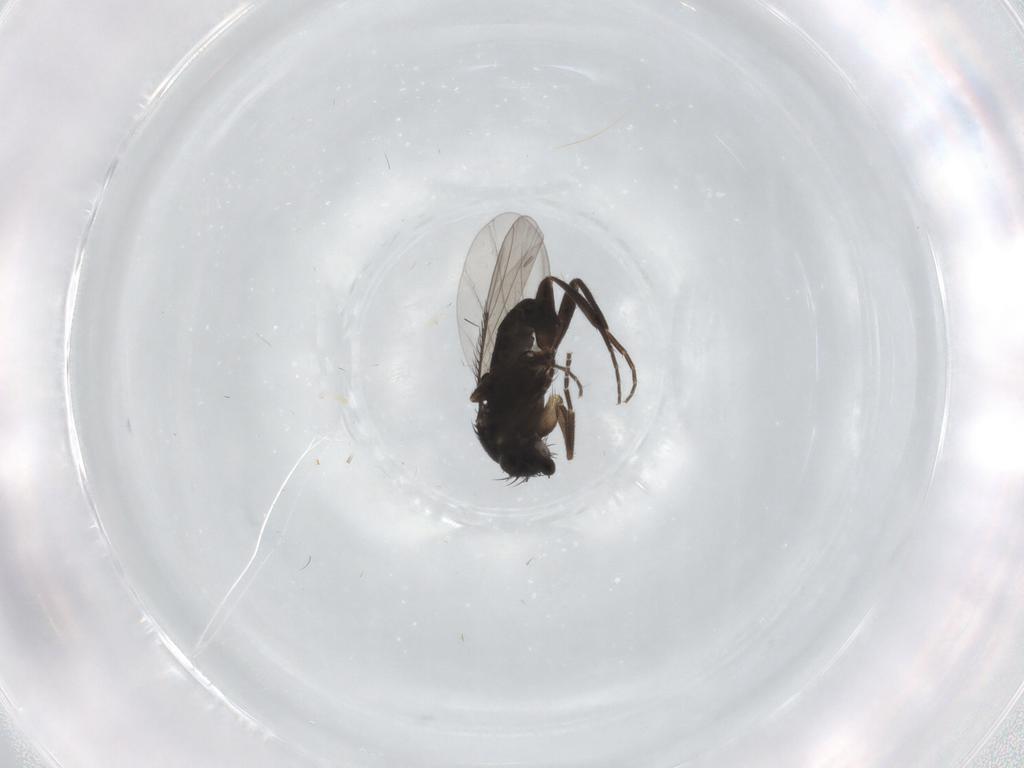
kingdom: Animalia
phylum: Arthropoda
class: Insecta
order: Diptera
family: Phoridae
